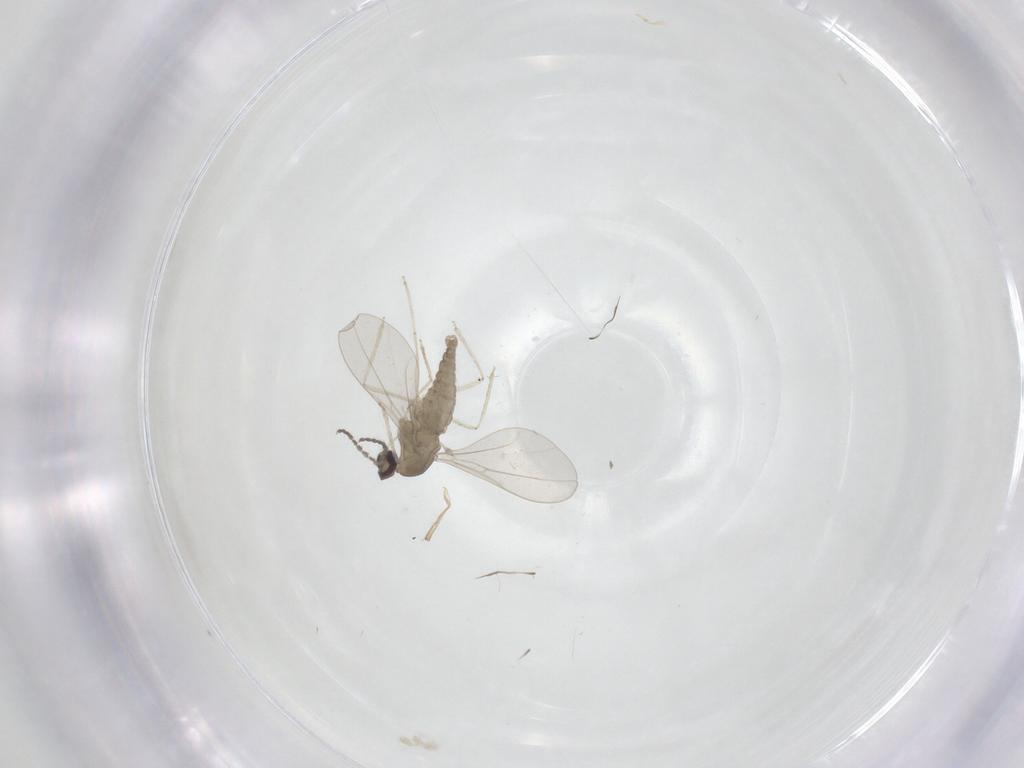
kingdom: Animalia
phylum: Arthropoda
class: Insecta
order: Diptera
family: Cecidomyiidae
